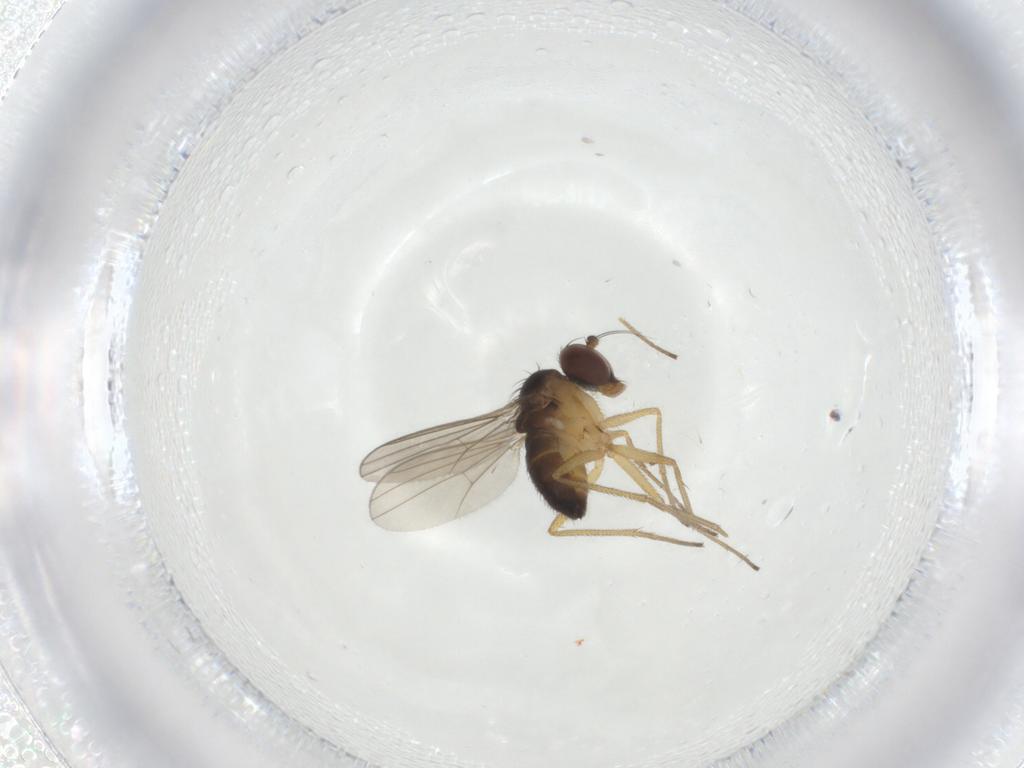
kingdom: Animalia
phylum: Arthropoda
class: Insecta
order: Diptera
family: Dolichopodidae
